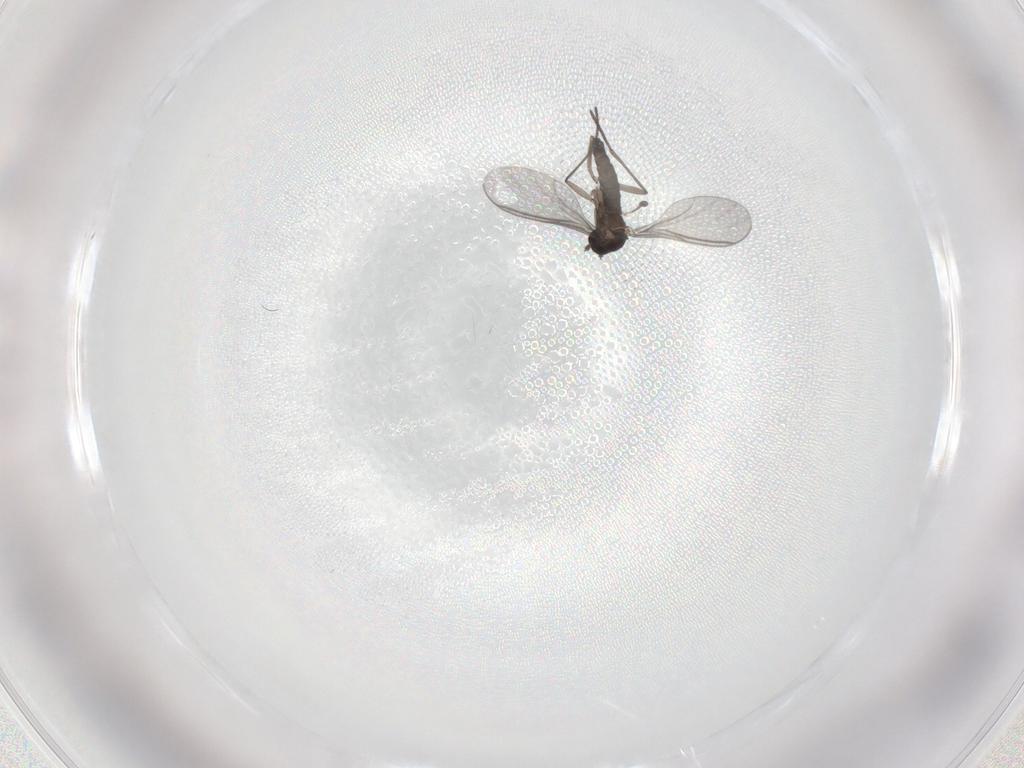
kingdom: Animalia
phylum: Arthropoda
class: Insecta
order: Diptera
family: Sciaridae
